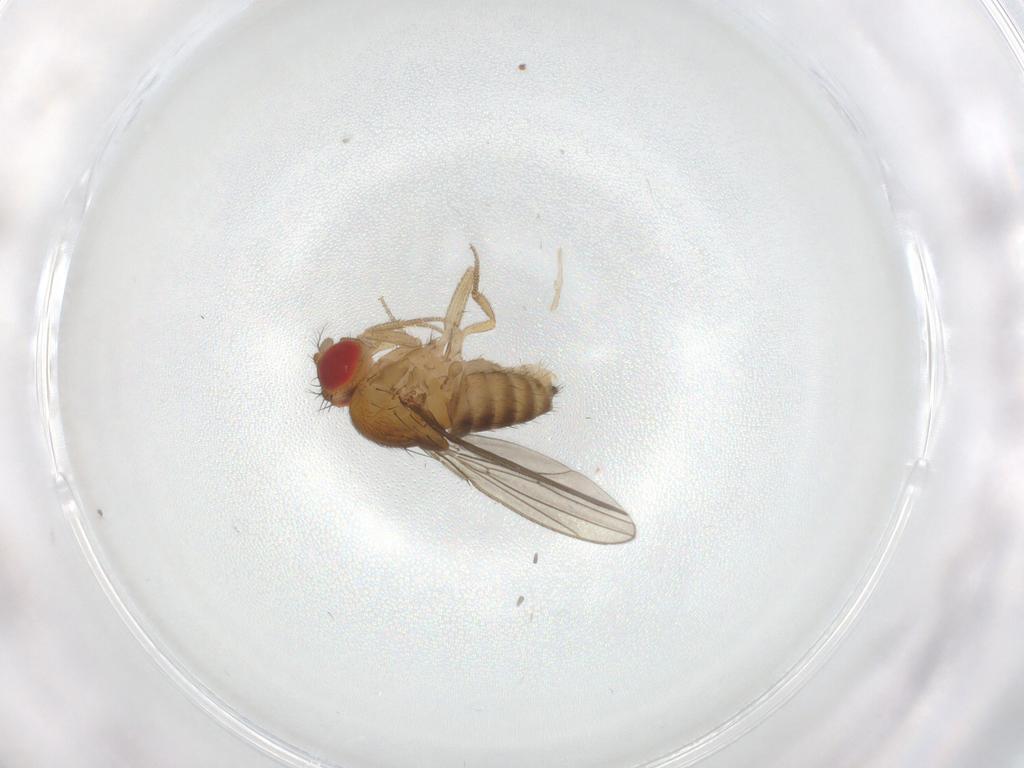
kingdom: Animalia
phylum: Arthropoda
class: Insecta
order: Diptera
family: Drosophilidae
